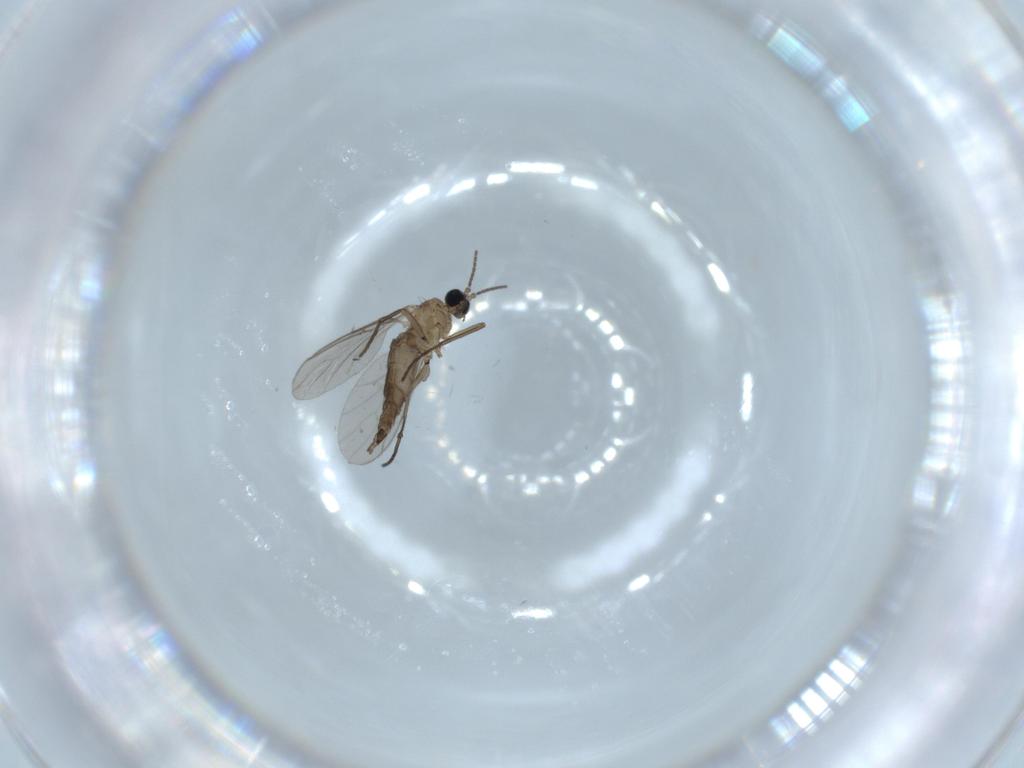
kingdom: Animalia
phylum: Arthropoda
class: Insecta
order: Diptera
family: Sciaridae
